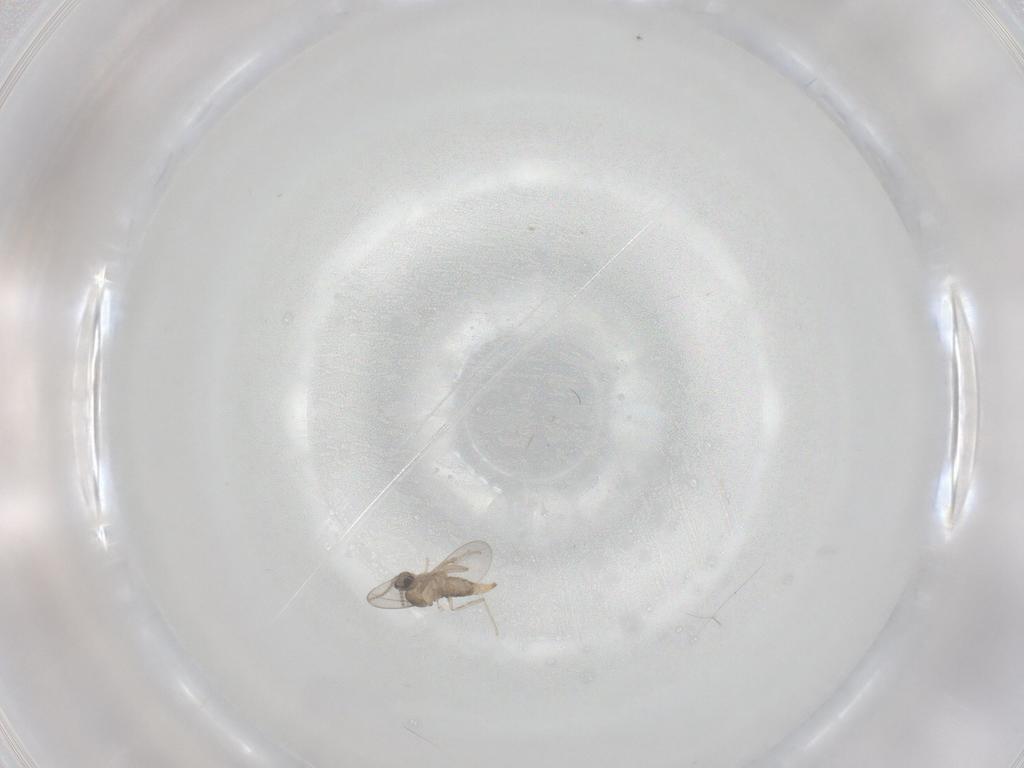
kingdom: Animalia
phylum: Arthropoda
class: Insecta
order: Diptera
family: Cecidomyiidae
